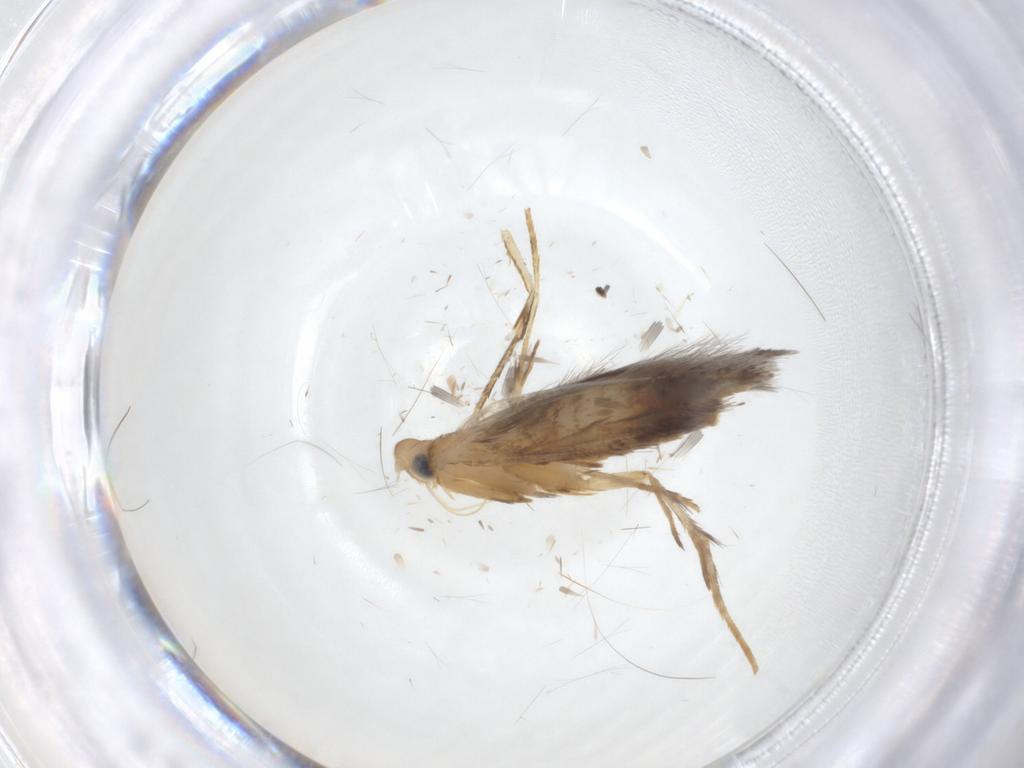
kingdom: Animalia
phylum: Arthropoda
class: Insecta
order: Lepidoptera
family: Tischeriidae
